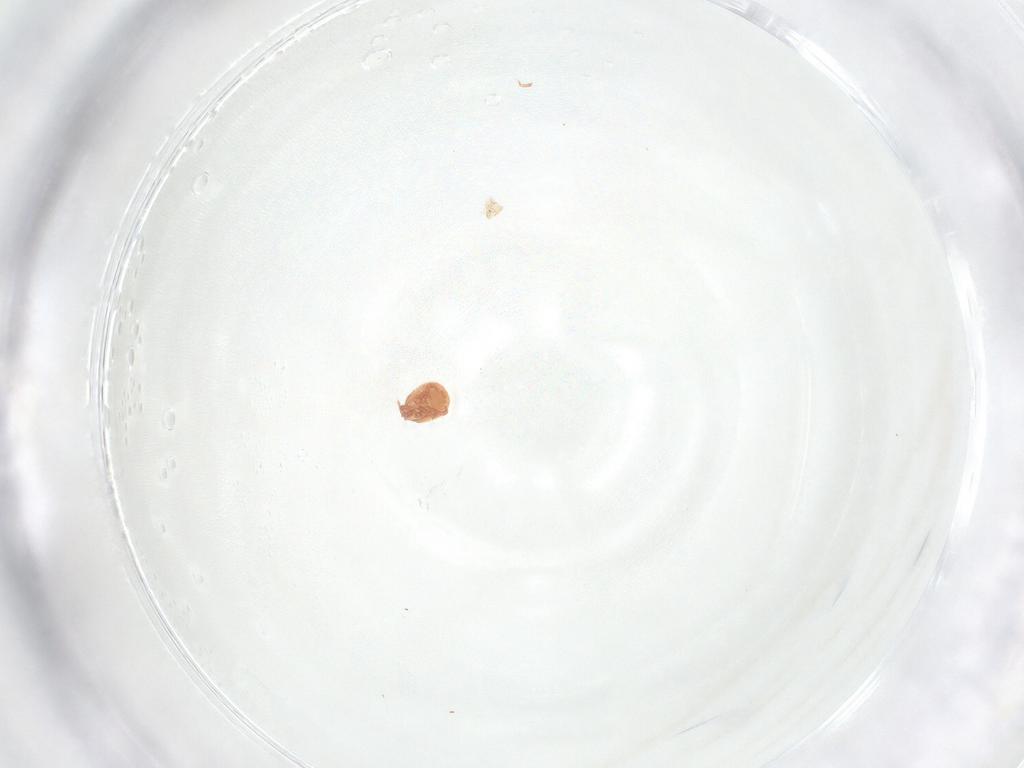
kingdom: Animalia
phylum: Arthropoda
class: Arachnida
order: Mesostigmata
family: Zerconidae
